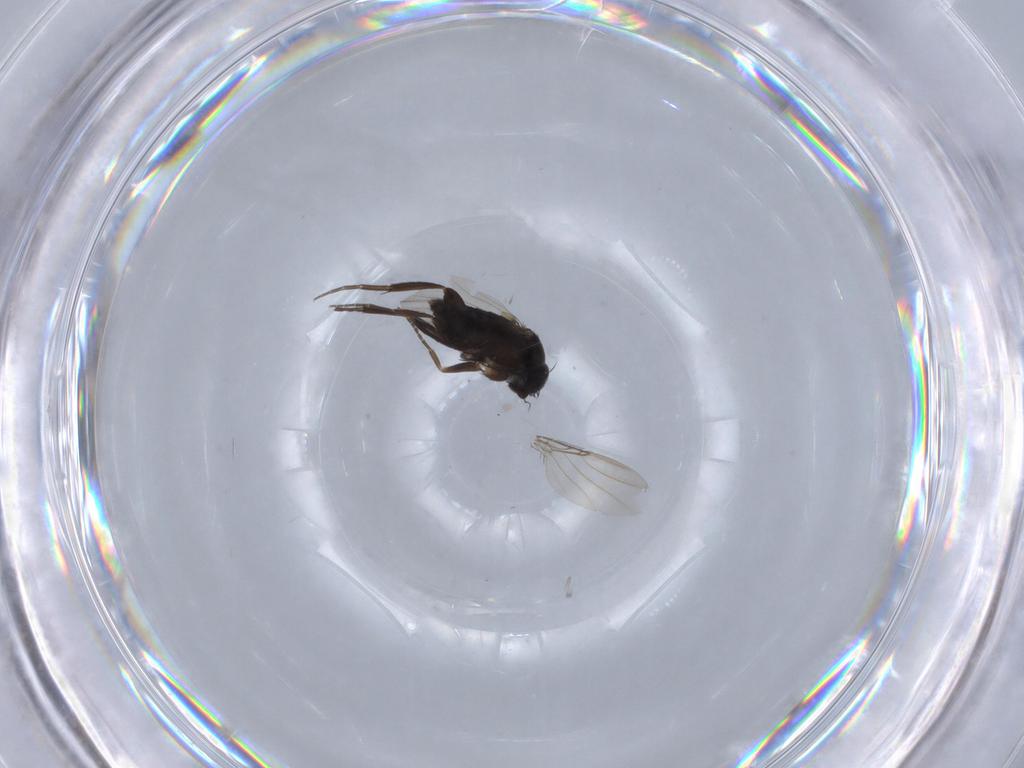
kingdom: Animalia
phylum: Arthropoda
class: Insecta
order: Diptera
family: Phoridae
